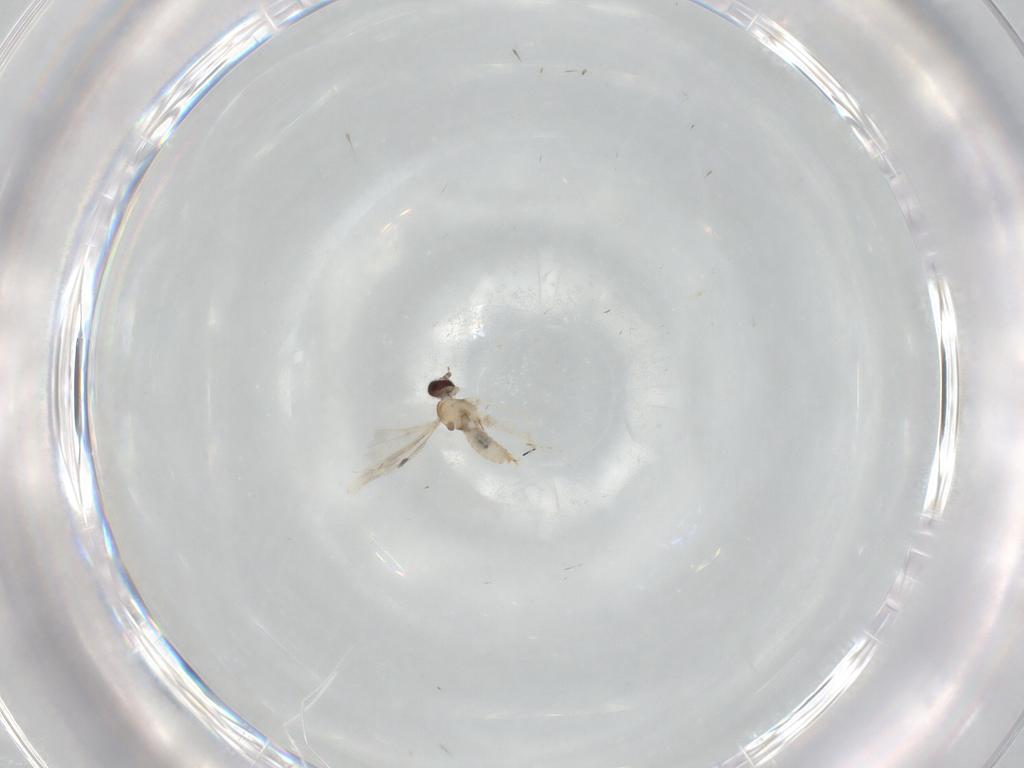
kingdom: Animalia
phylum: Arthropoda
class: Insecta
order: Diptera
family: Cecidomyiidae
